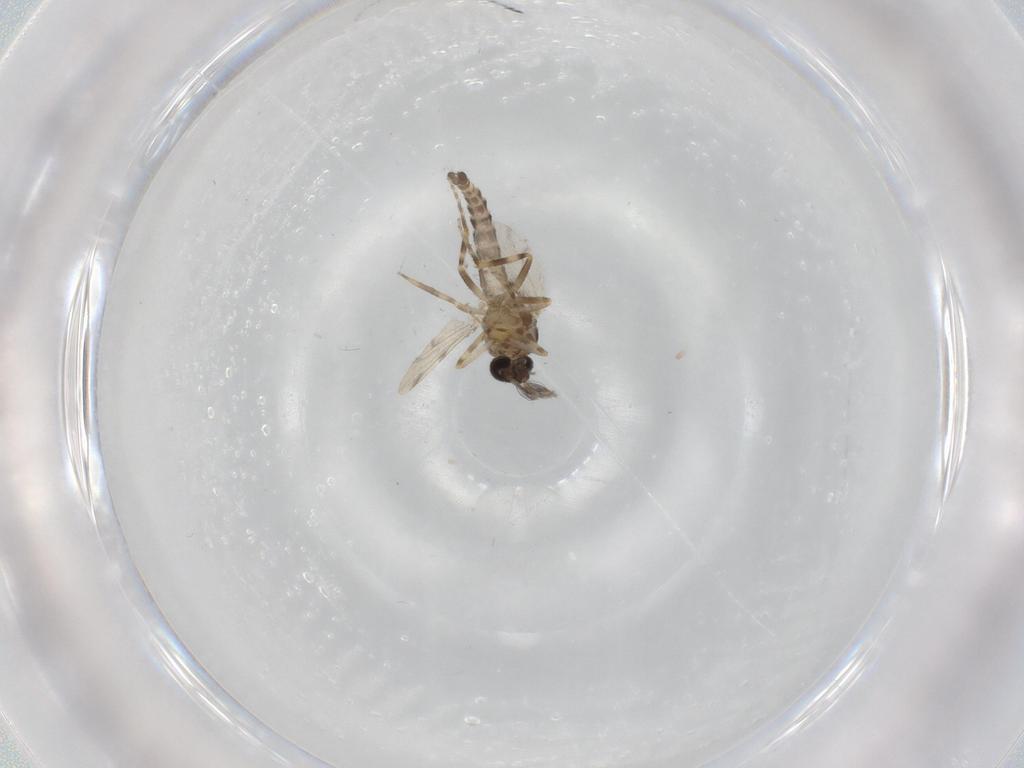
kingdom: Animalia
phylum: Arthropoda
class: Insecta
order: Diptera
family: Ceratopogonidae
